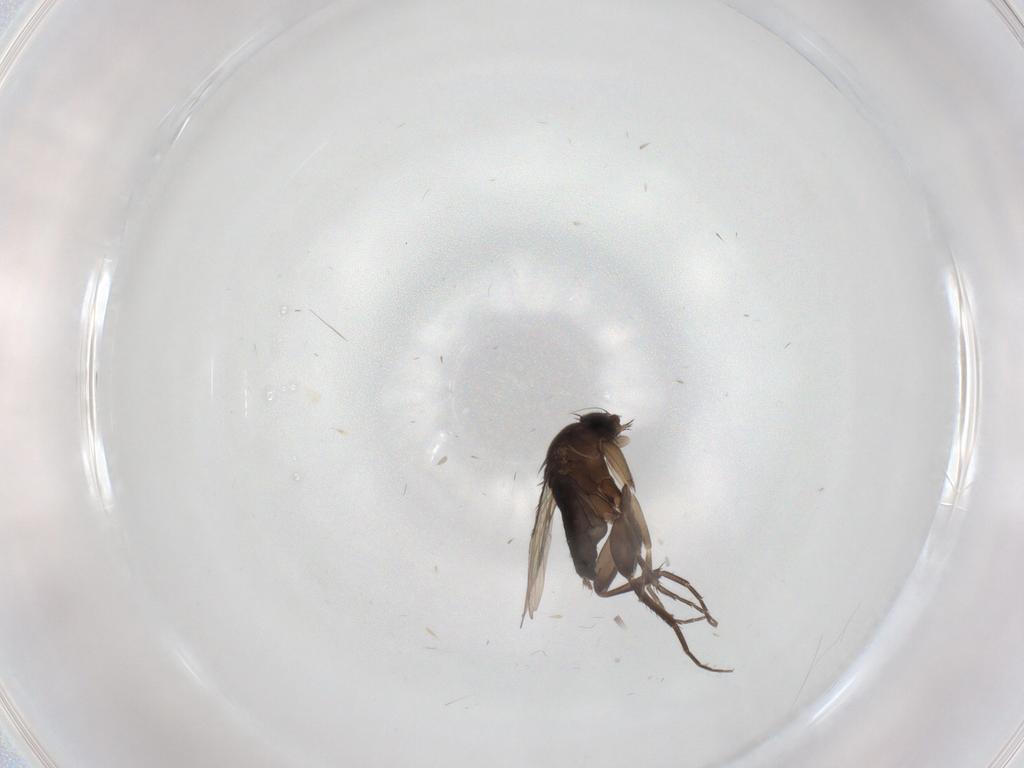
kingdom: Animalia
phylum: Arthropoda
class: Insecta
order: Diptera
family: Phoridae
